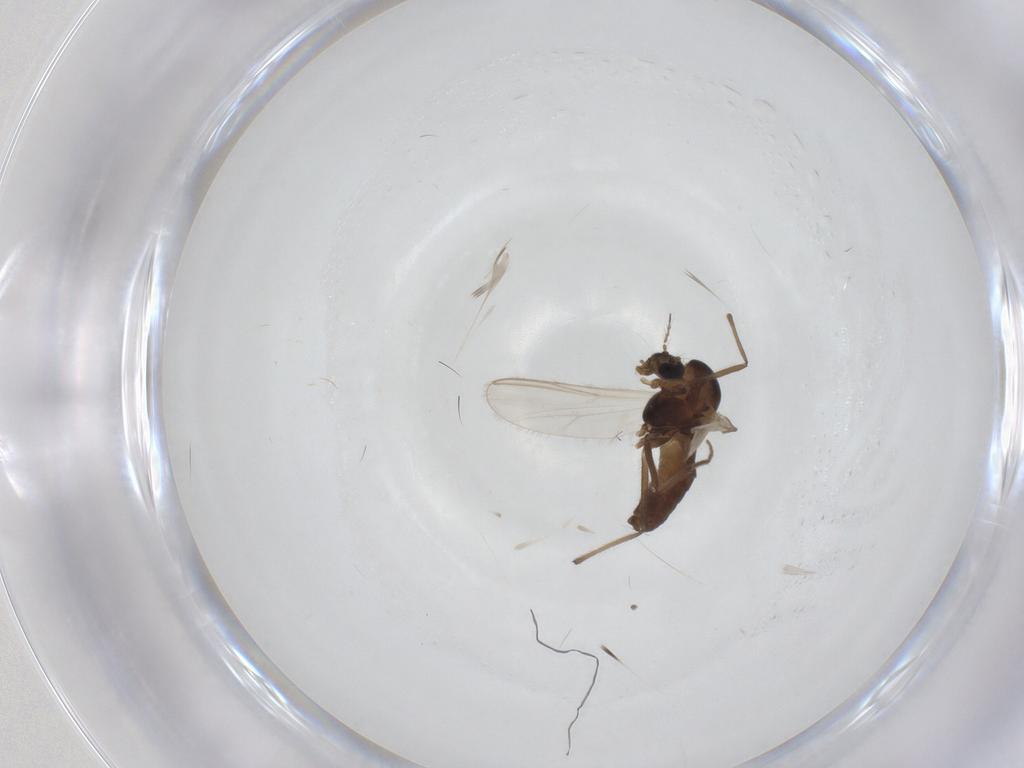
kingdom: Animalia
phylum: Arthropoda
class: Insecta
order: Diptera
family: Chironomidae
